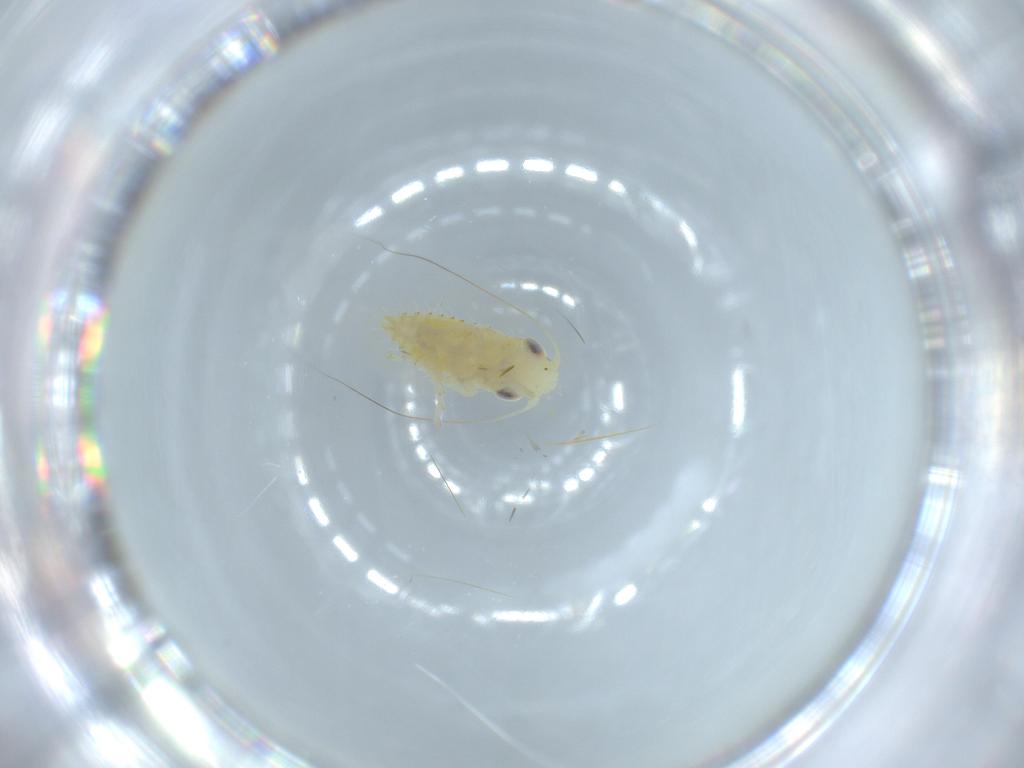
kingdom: Animalia
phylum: Arthropoda
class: Insecta
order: Hemiptera
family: Cicadellidae
